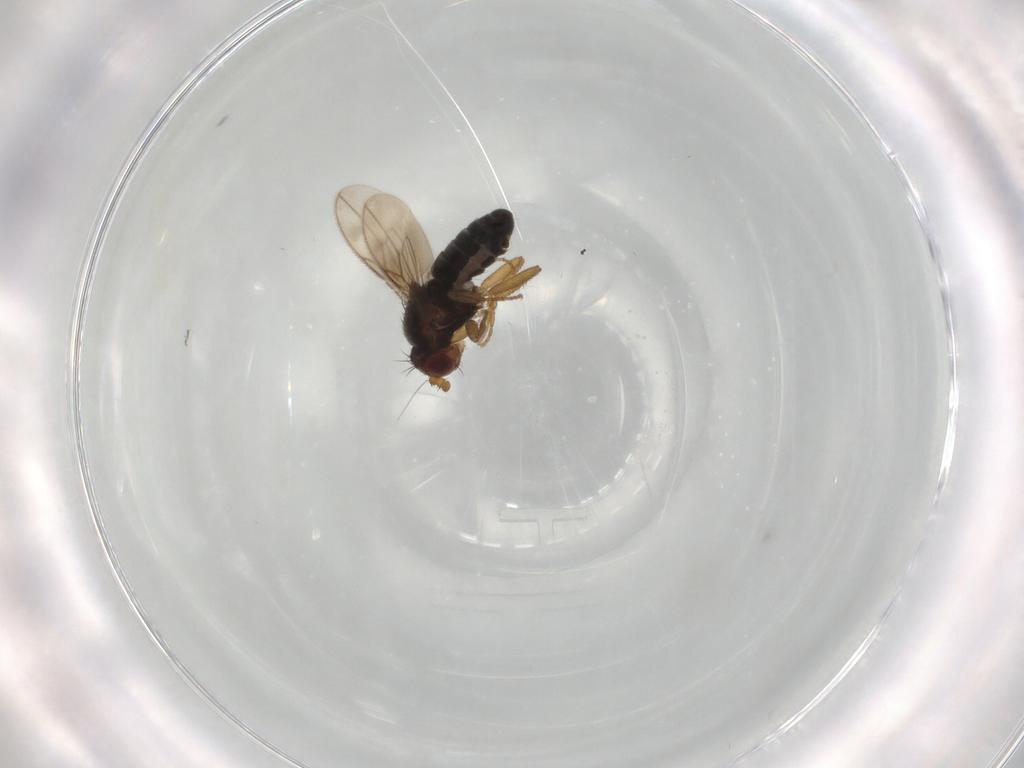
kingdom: Animalia
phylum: Arthropoda
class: Insecta
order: Diptera
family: Sphaeroceridae
